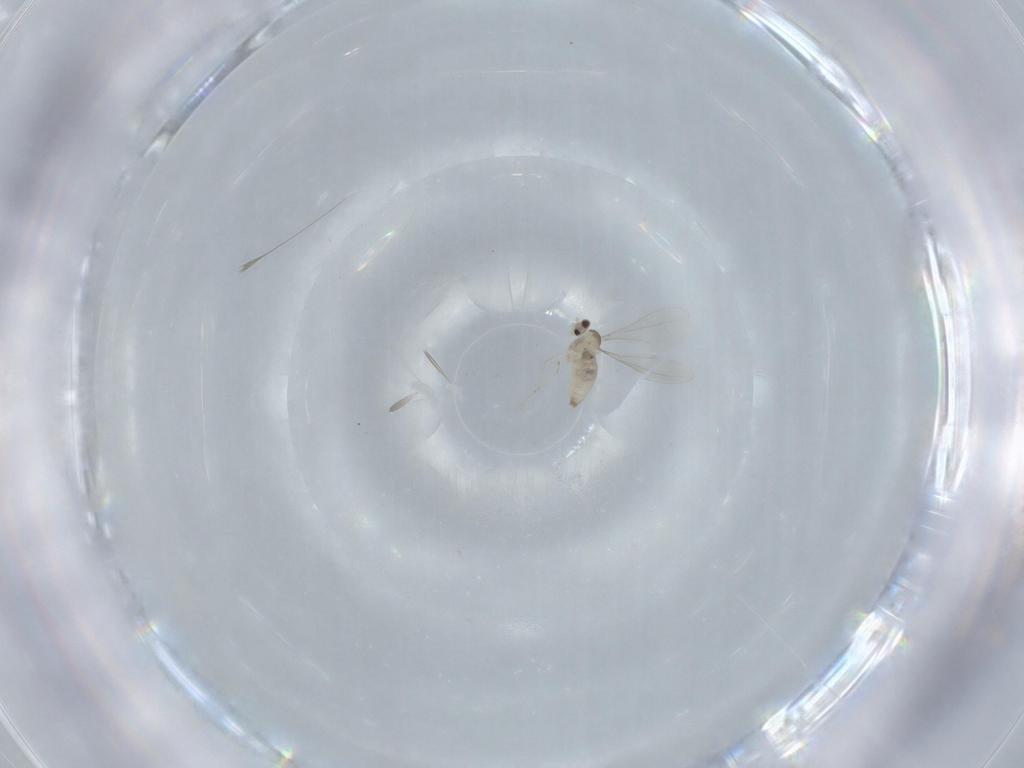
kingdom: Animalia
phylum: Arthropoda
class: Insecta
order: Diptera
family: Cecidomyiidae
